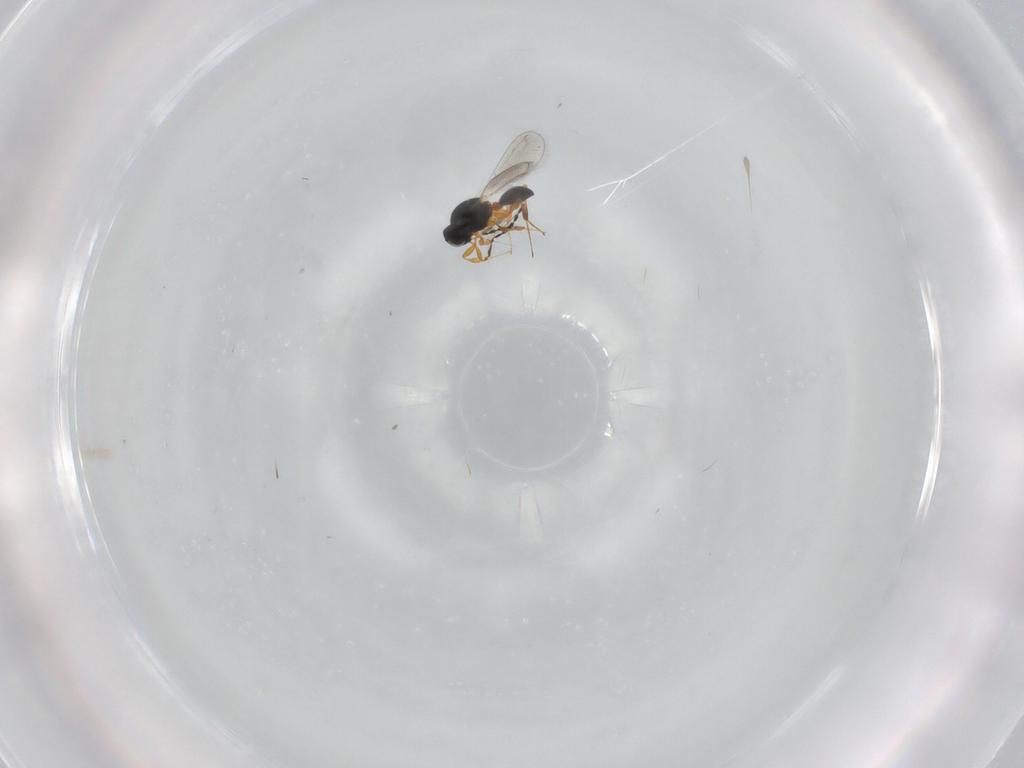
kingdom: Animalia
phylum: Arthropoda
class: Insecta
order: Hymenoptera
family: Platygastridae
